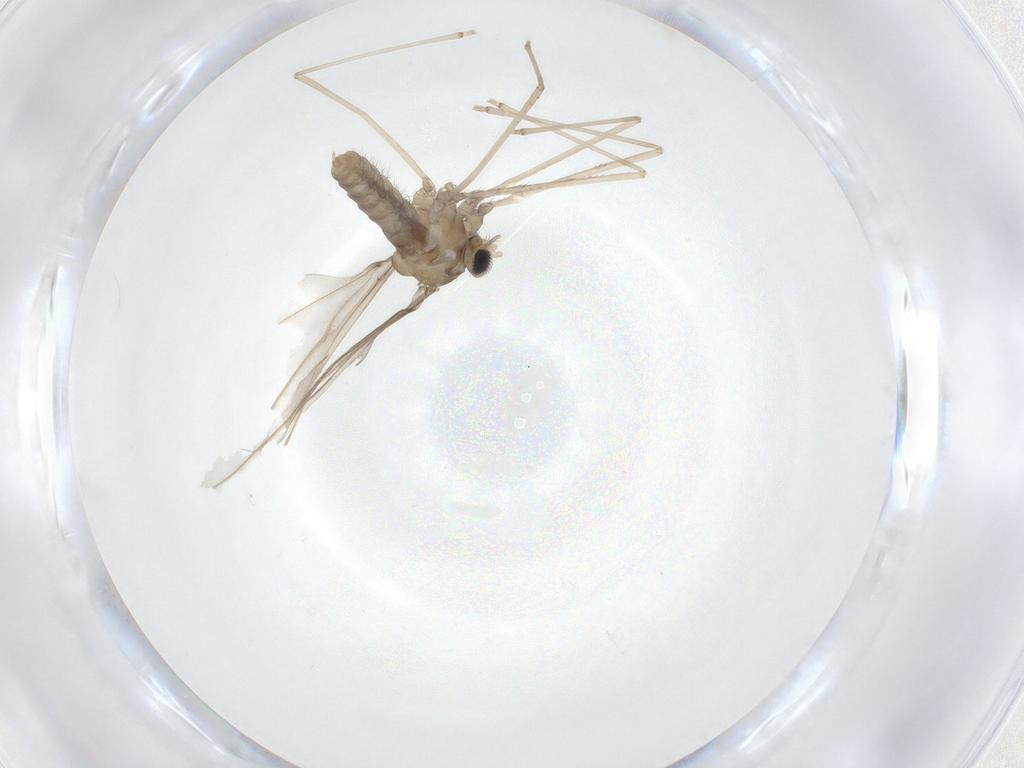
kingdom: Animalia
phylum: Arthropoda
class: Insecta
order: Diptera
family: Cecidomyiidae
